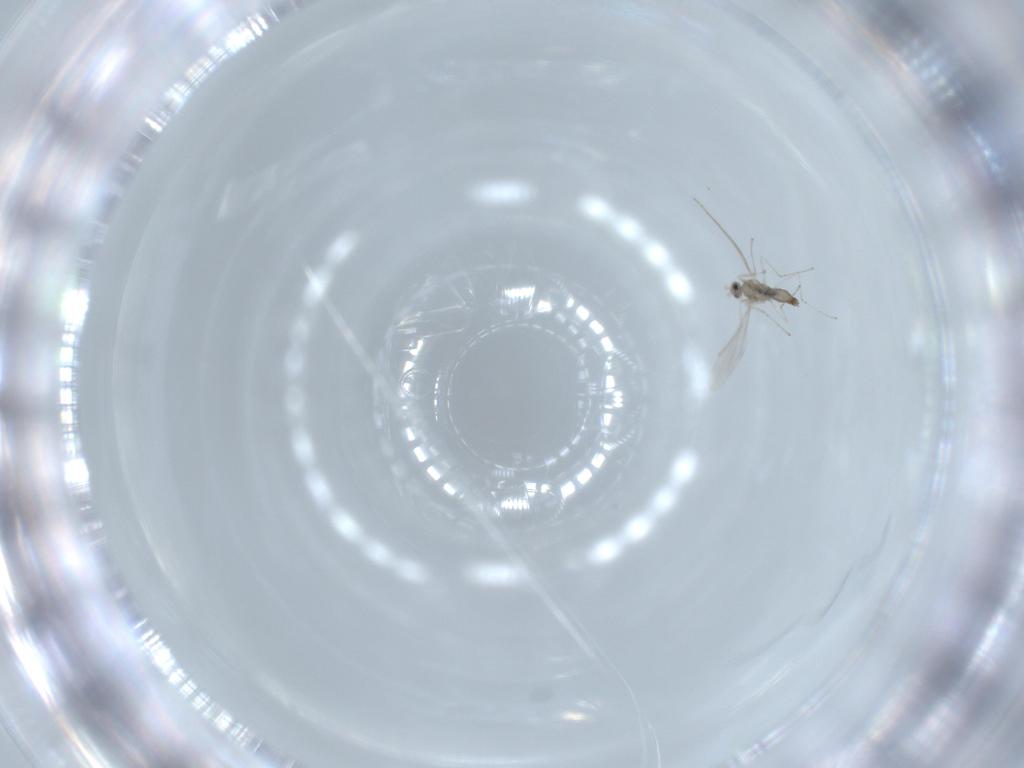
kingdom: Animalia
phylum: Arthropoda
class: Insecta
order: Diptera
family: Cecidomyiidae
